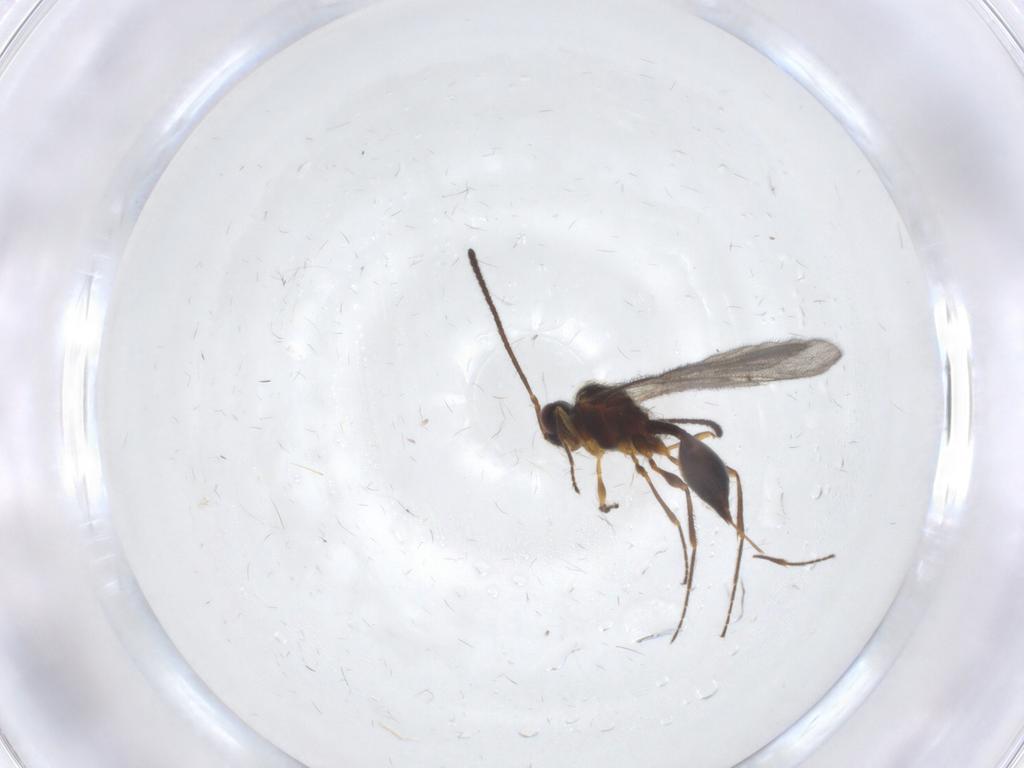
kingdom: Animalia
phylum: Arthropoda
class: Insecta
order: Hymenoptera
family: Diapriidae
